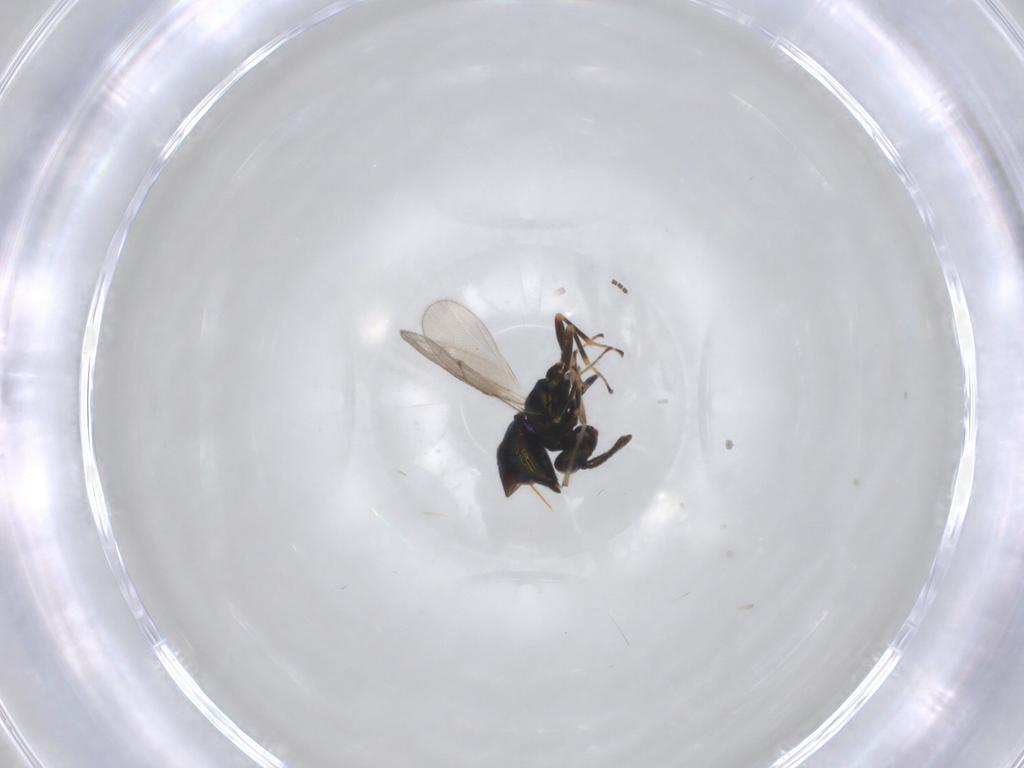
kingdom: Animalia
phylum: Arthropoda
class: Insecta
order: Hymenoptera
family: Pteromalidae
